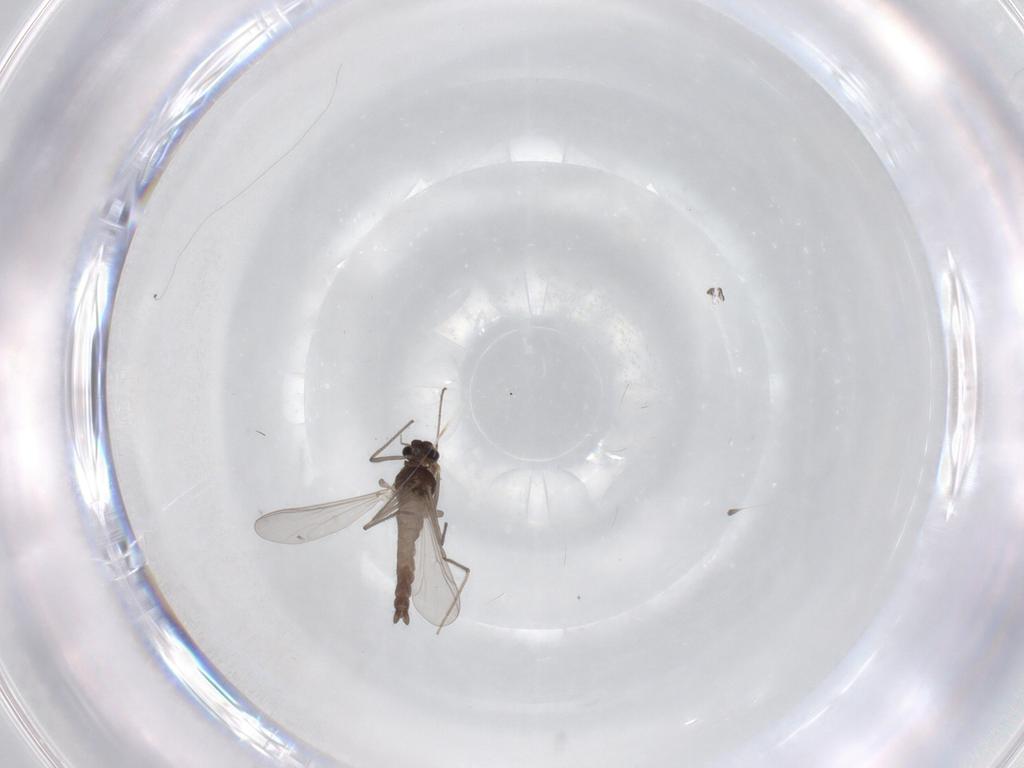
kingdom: Animalia
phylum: Arthropoda
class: Insecta
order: Diptera
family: Chironomidae
